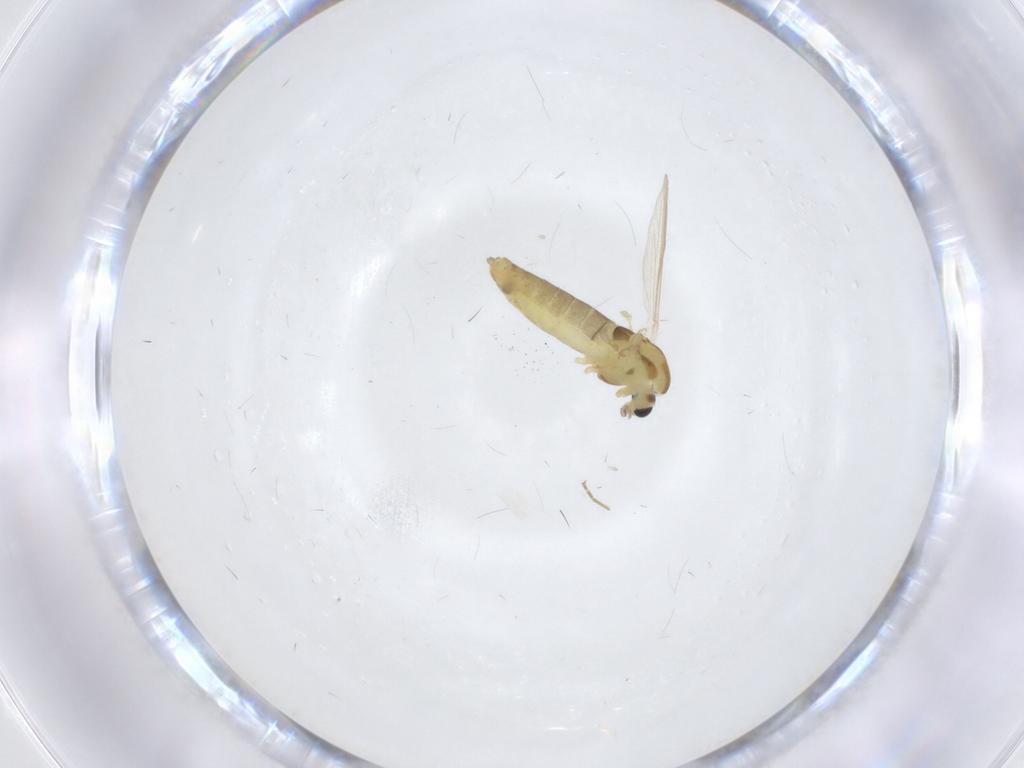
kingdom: Animalia
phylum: Arthropoda
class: Insecta
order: Diptera
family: Chironomidae
